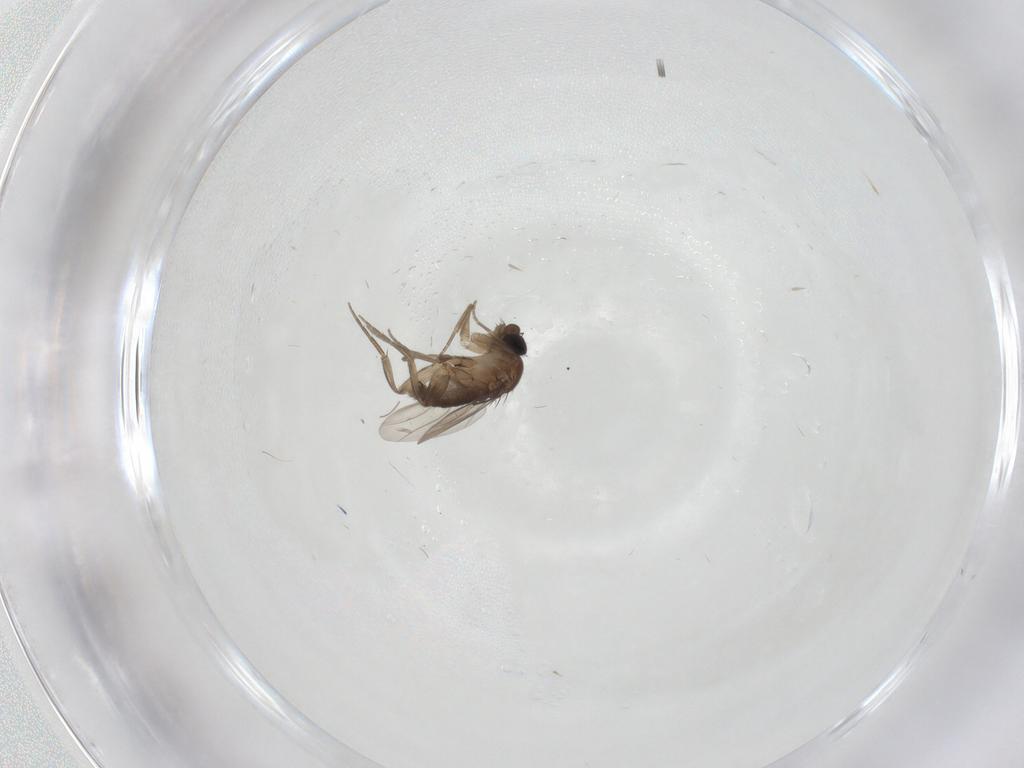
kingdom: Animalia
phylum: Arthropoda
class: Insecta
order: Diptera
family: Phoridae
